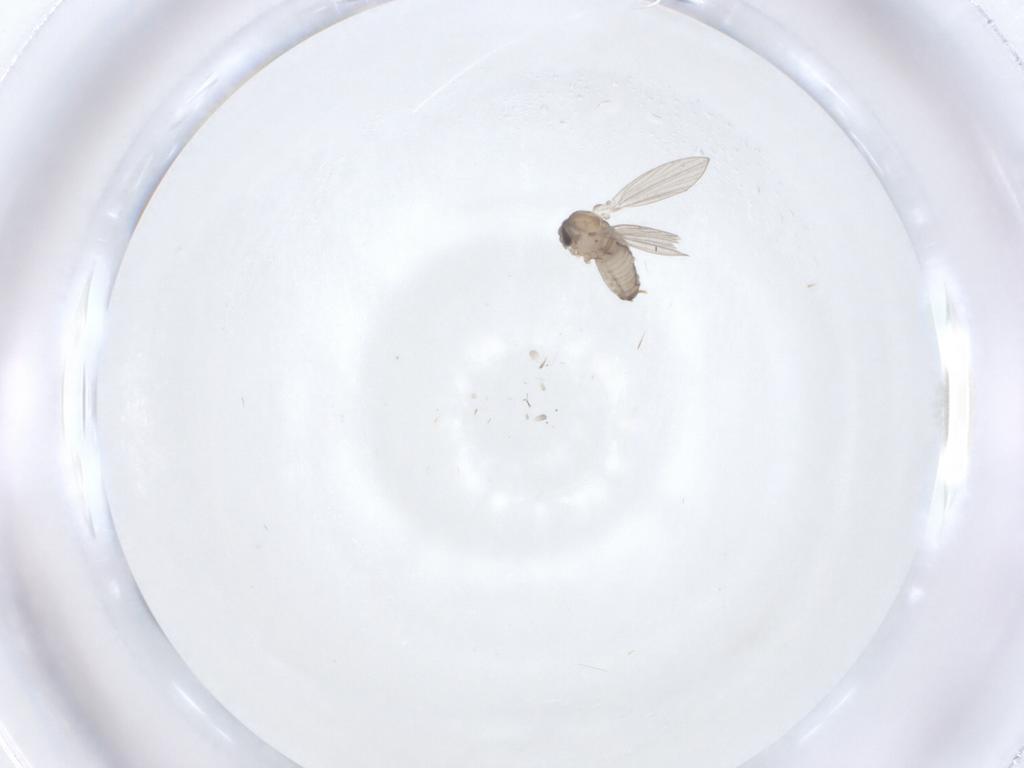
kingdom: Animalia
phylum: Arthropoda
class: Insecta
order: Diptera
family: Psychodidae
